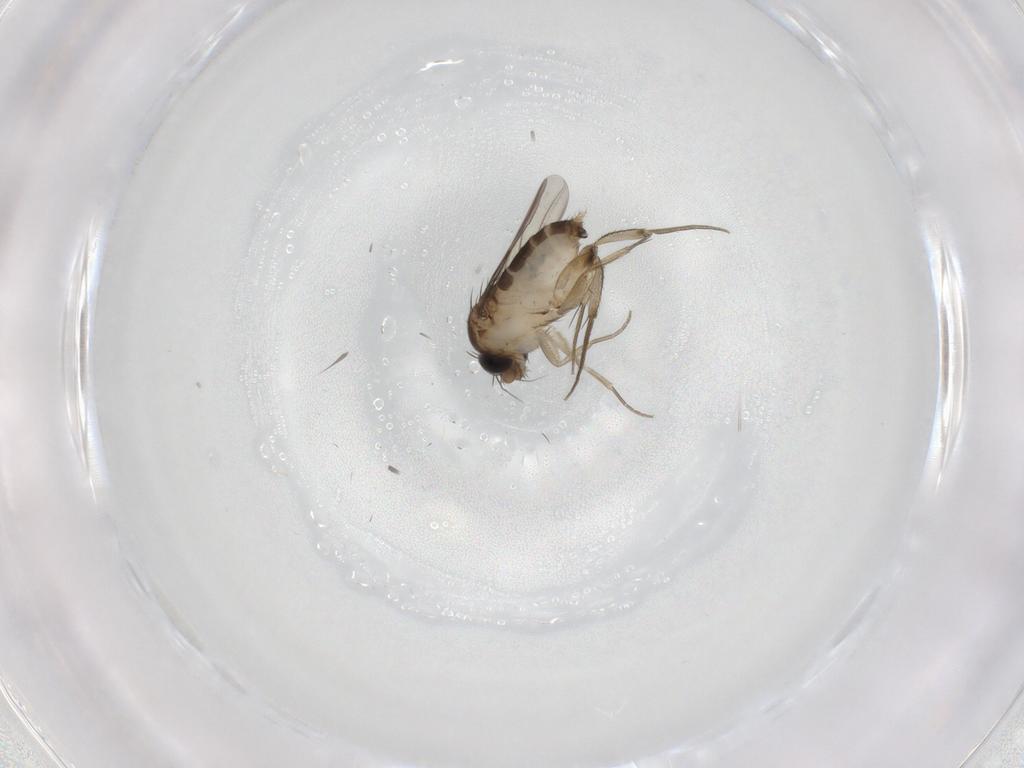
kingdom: Animalia
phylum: Arthropoda
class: Insecta
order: Diptera
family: Phoridae
